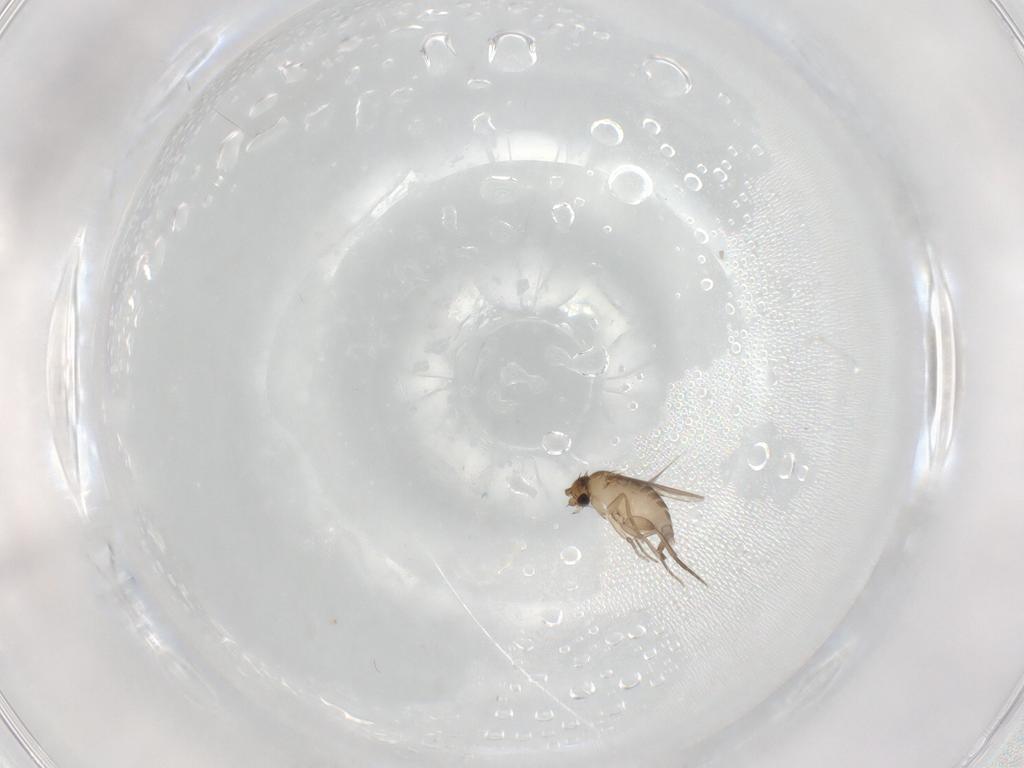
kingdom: Animalia
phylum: Arthropoda
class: Insecta
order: Diptera
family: Phoridae
